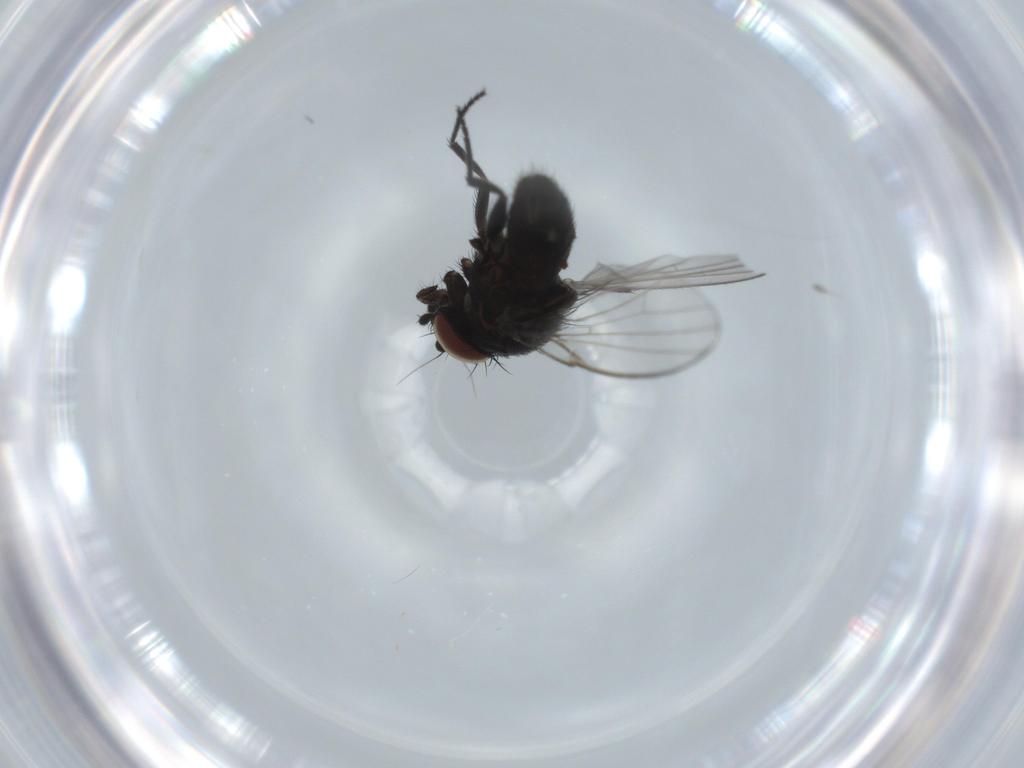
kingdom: Animalia
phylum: Arthropoda
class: Insecta
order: Diptera
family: Milichiidae
